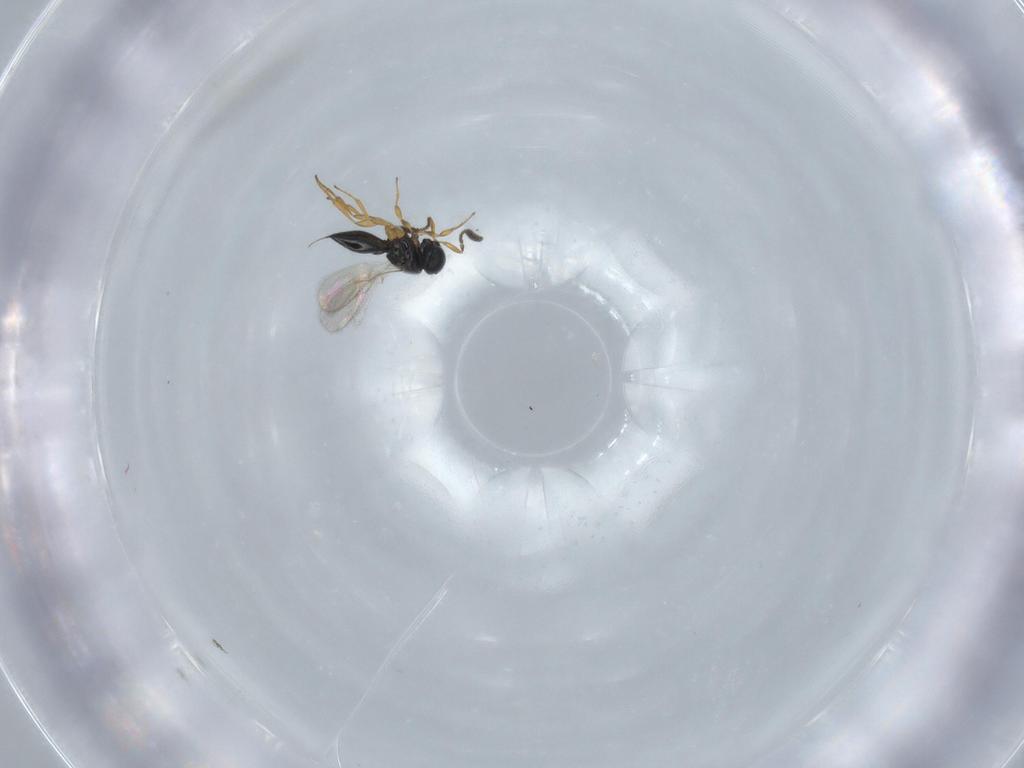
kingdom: Animalia
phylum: Arthropoda
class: Insecta
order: Hymenoptera
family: Scelionidae
